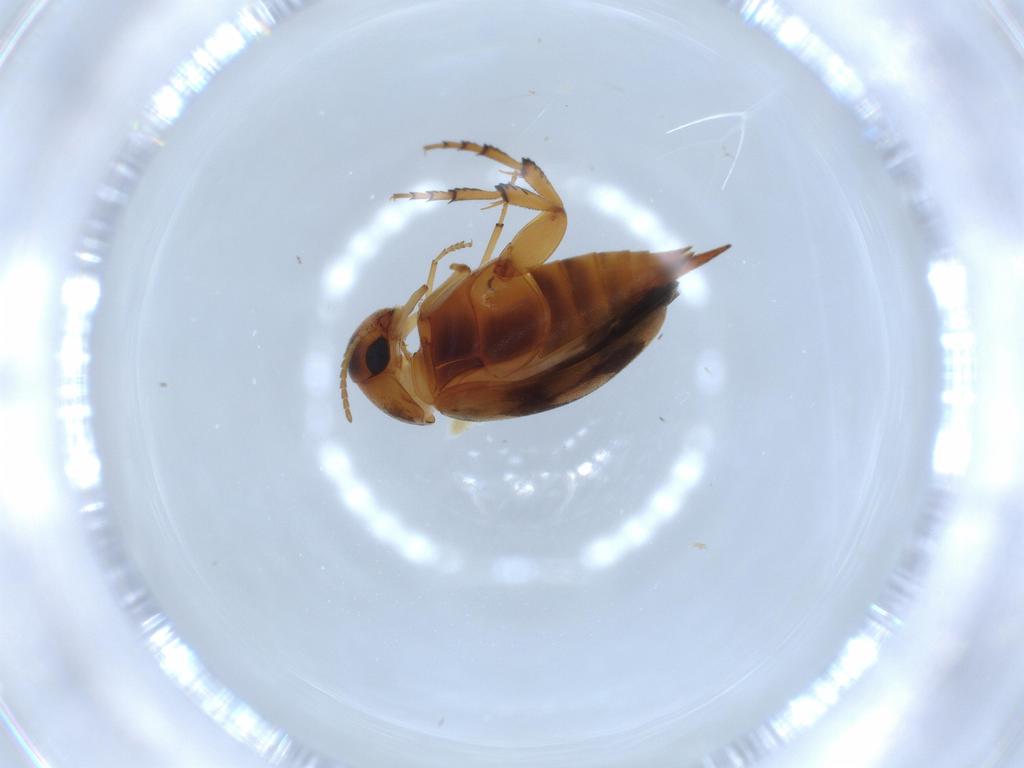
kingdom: Animalia
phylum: Arthropoda
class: Insecta
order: Coleoptera
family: Mordellidae
